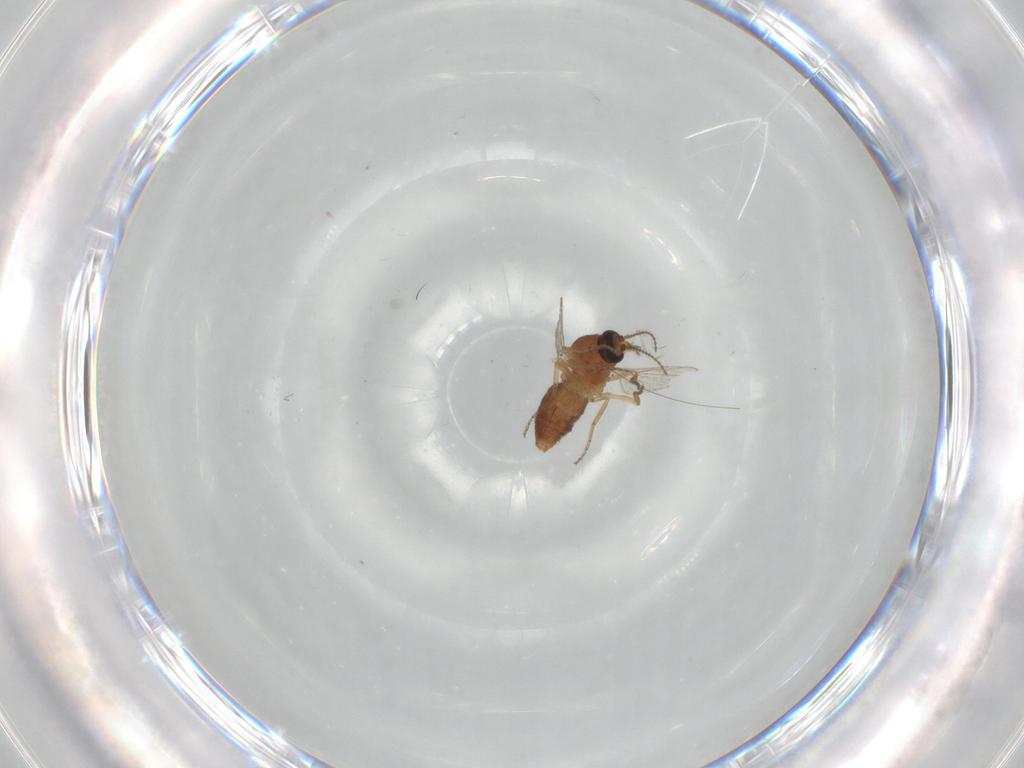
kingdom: Animalia
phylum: Arthropoda
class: Insecta
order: Diptera
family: Ceratopogonidae
